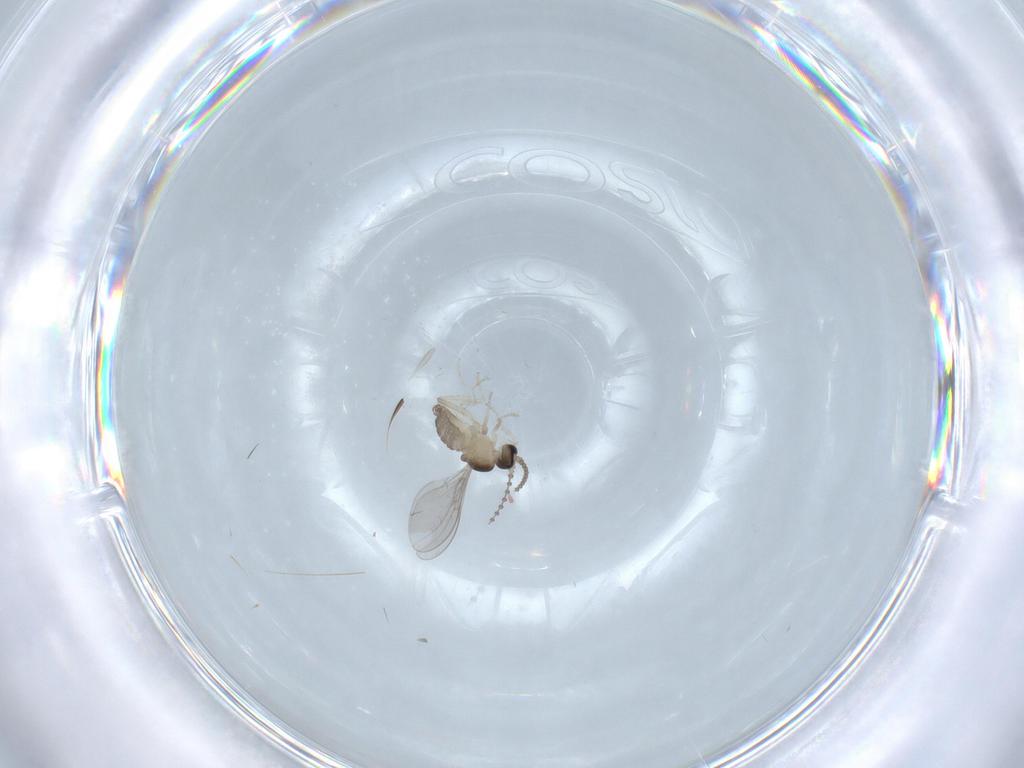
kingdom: Animalia
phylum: Arthropoda
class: Insecta
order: Diptera
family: Cecidomyiidae
